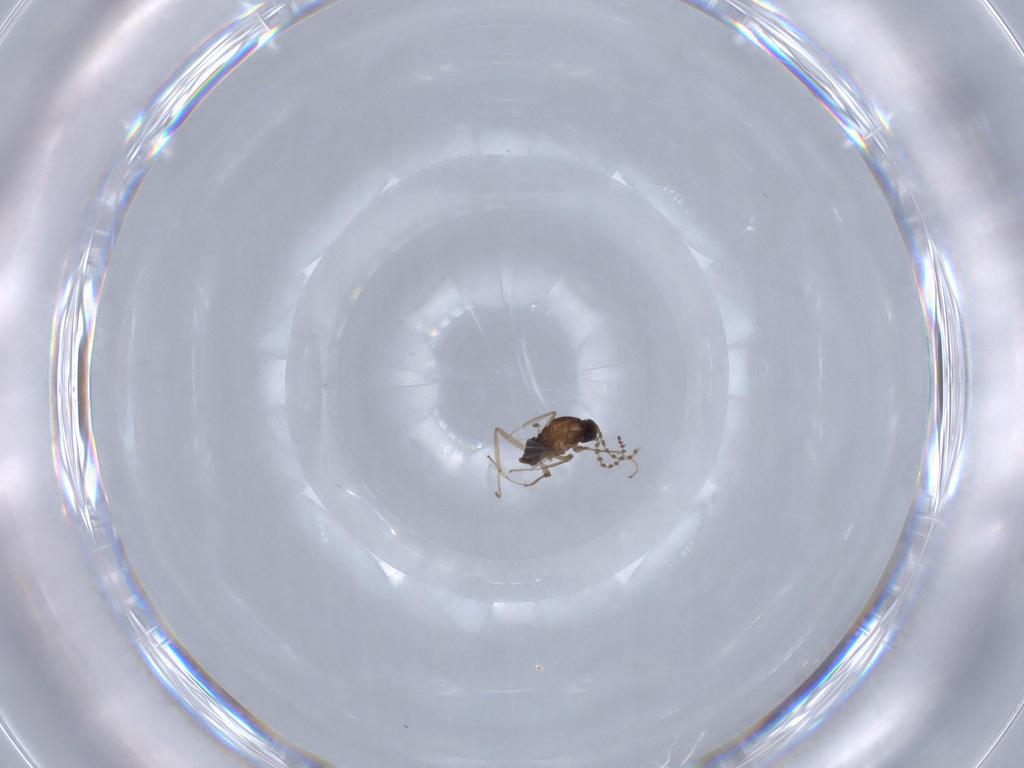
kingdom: Animalia
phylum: Arthropoda
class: Insecta
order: Diptera
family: Cecidomyiidae
